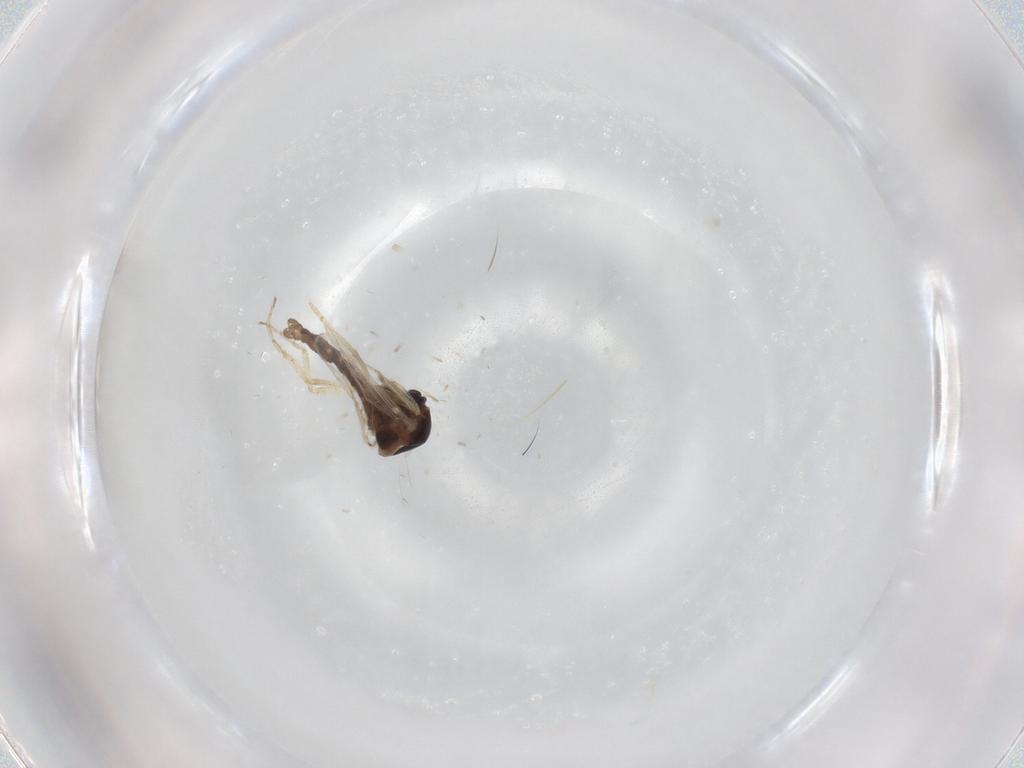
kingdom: Animalia
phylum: Arthropoda
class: Insecta
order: Diptera
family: Ceratopogonidae
